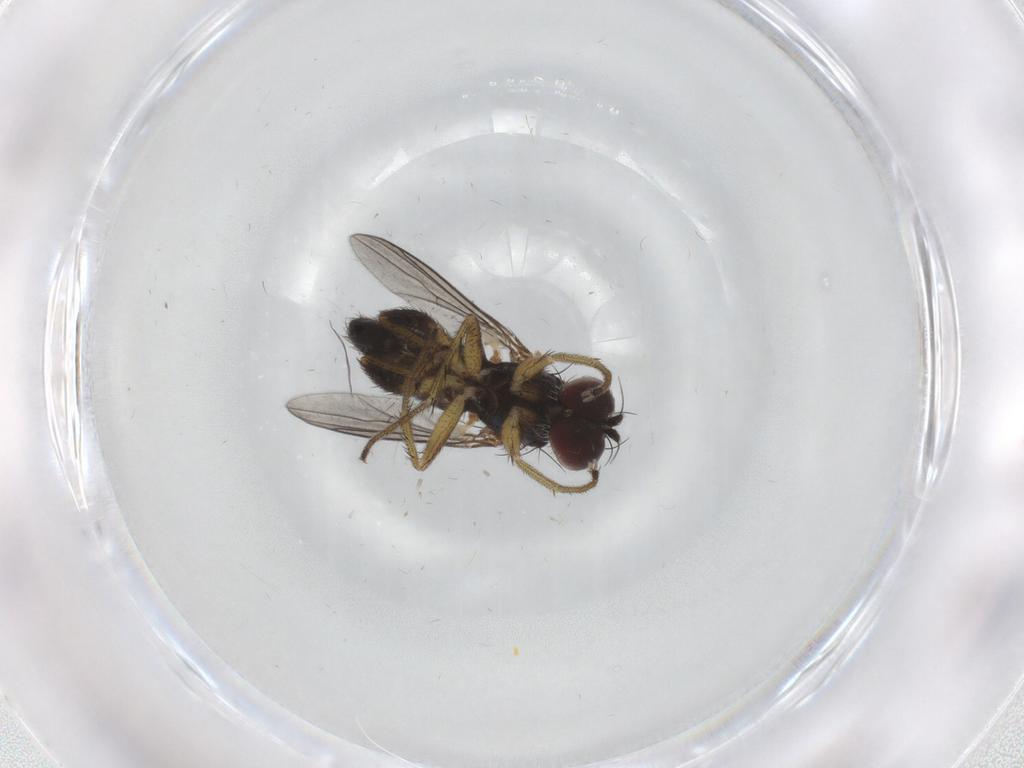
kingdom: Animalia
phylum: Arthropoda
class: Insecta
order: Diptera
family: Dolichopodidae
